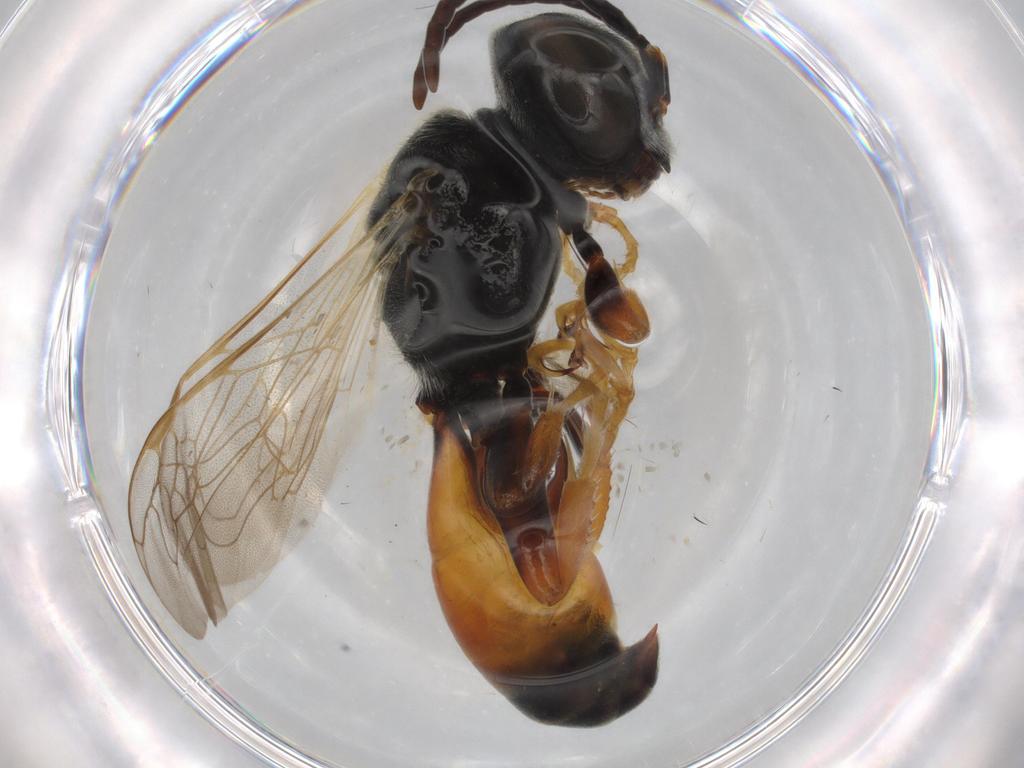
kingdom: Animalia
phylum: Arthropoda
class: Insecta
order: Hymenoptera
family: Crabronidae
